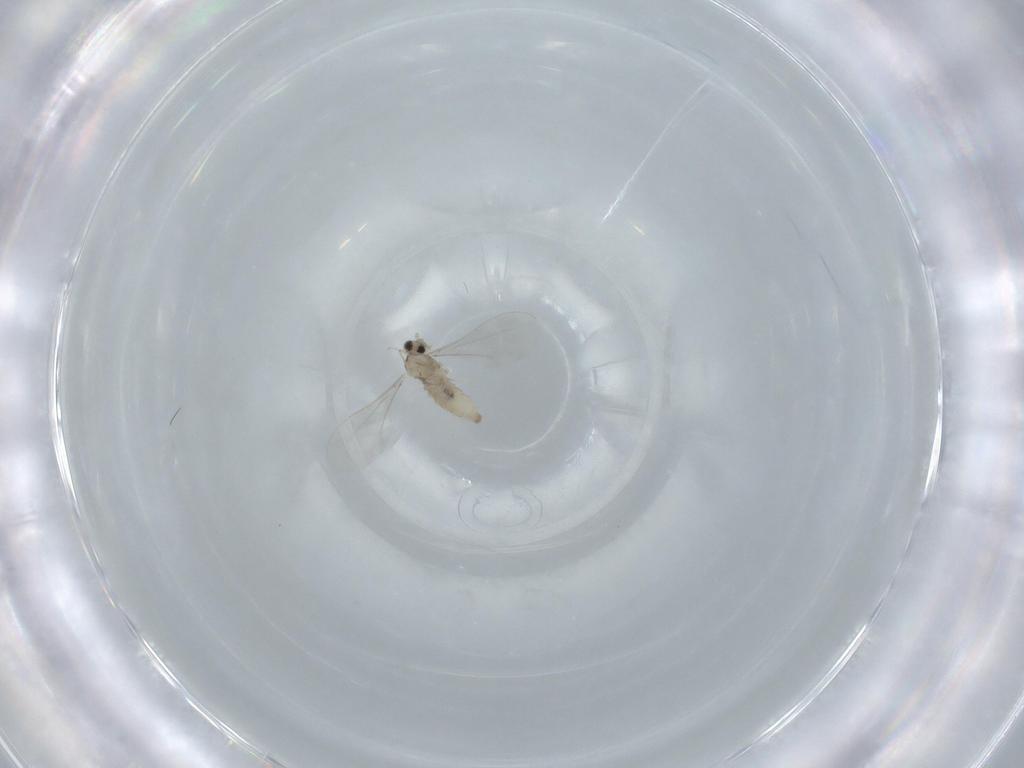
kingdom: Animalia
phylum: Arthropoda
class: Insecta
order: Diptera
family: Cecidomyiidae
